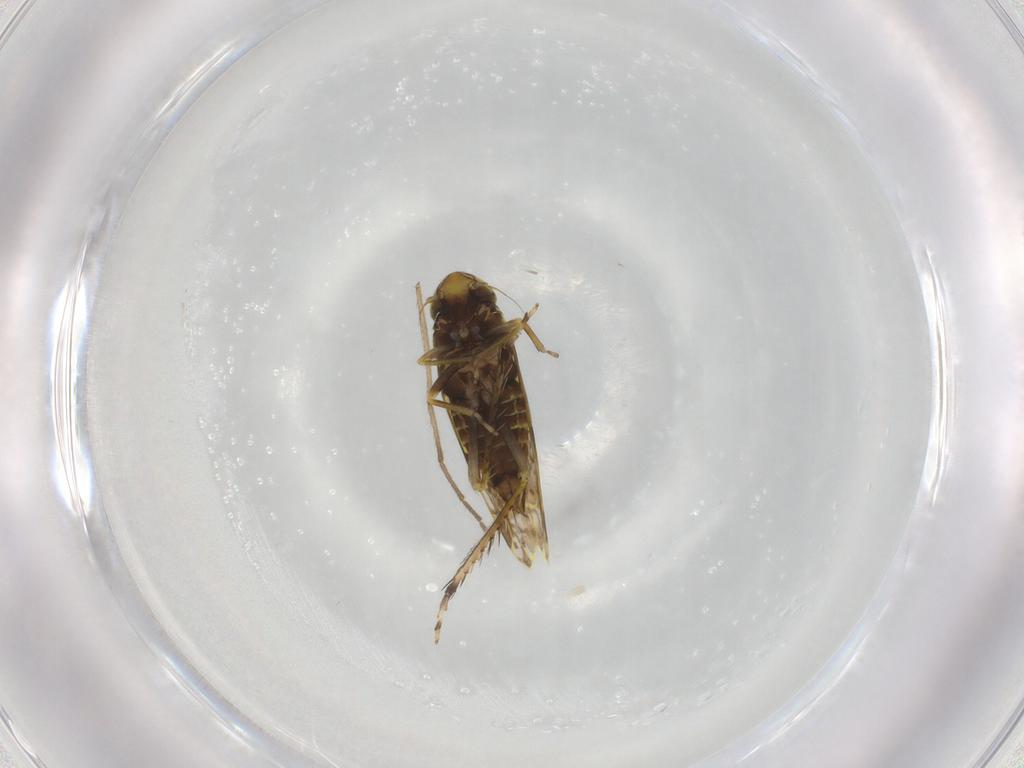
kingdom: Animalia
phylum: Arthropoda
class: Insecta
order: Hemiptera
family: Cicadellidae
